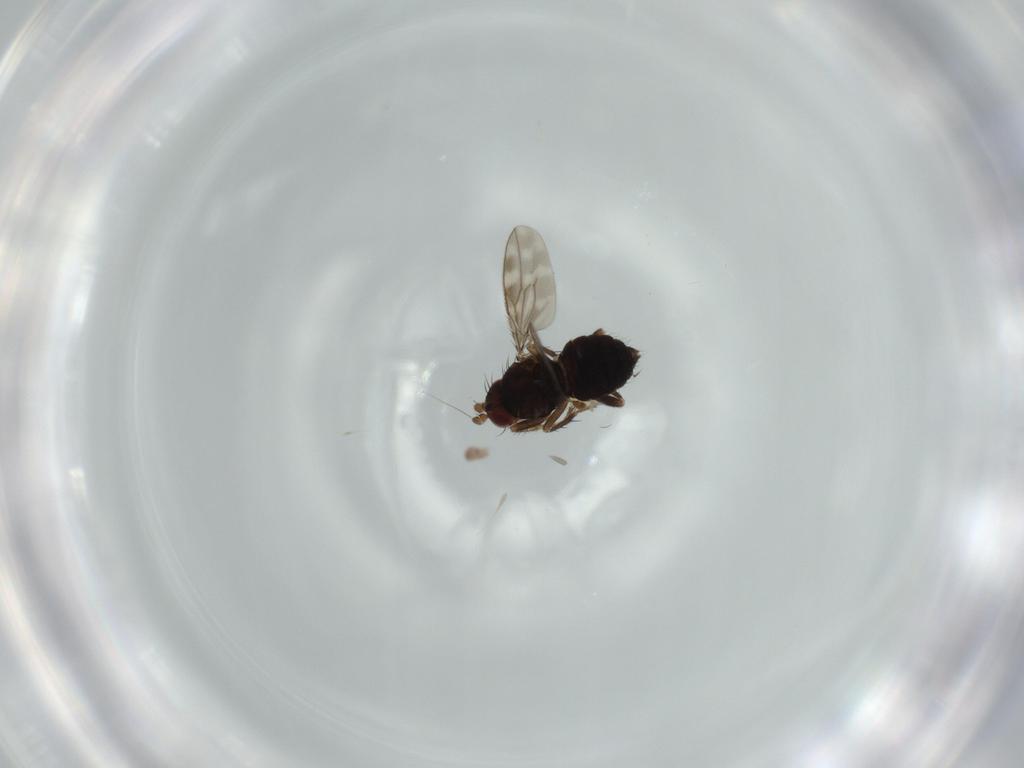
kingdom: Animalia
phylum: Arthropoda
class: Insecta
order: Diptera
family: Sphaeroceridae
